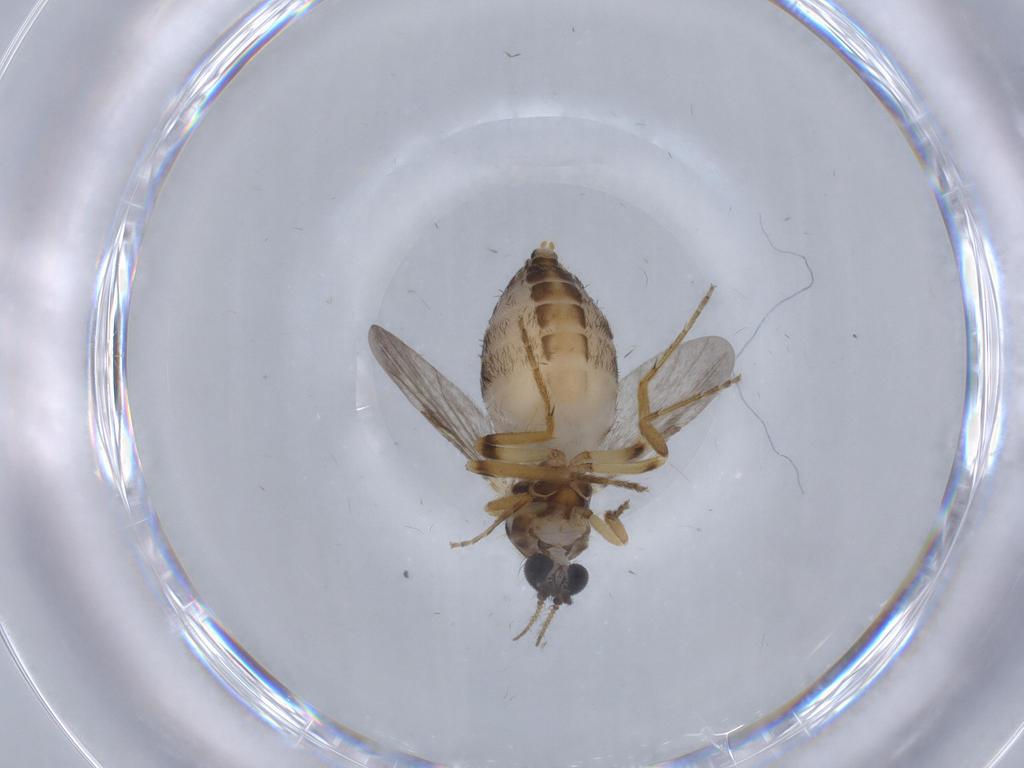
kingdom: Animalia
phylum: Arthropoda
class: Insecta
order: Diptera
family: Ceratopogonidae
